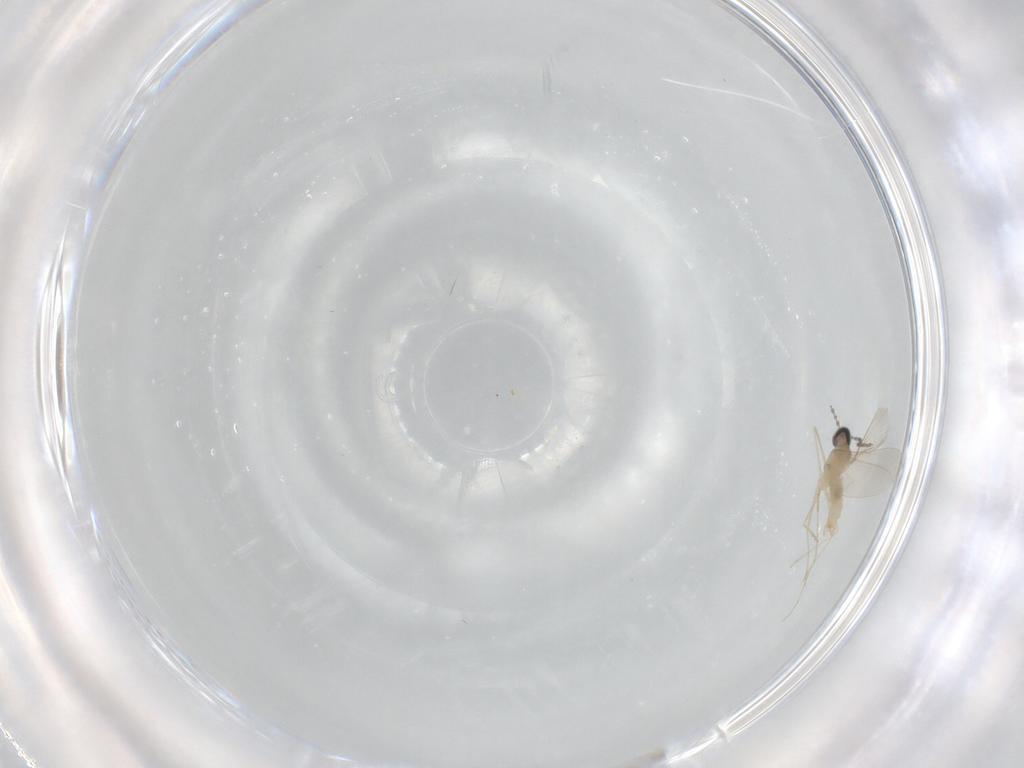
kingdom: Animalia
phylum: Arthropoda
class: Insecta
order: Diptera
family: Cecidomyiidae
